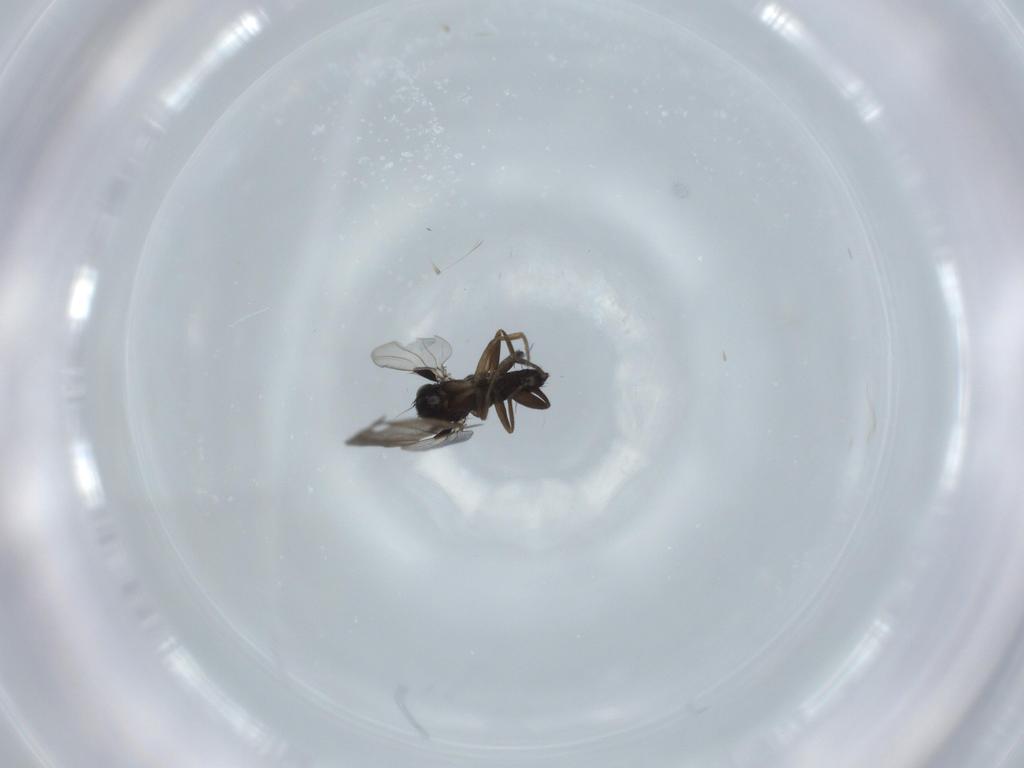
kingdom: Animalia
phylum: Arthropoda
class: Insecta
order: Diptera
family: Phoridae
